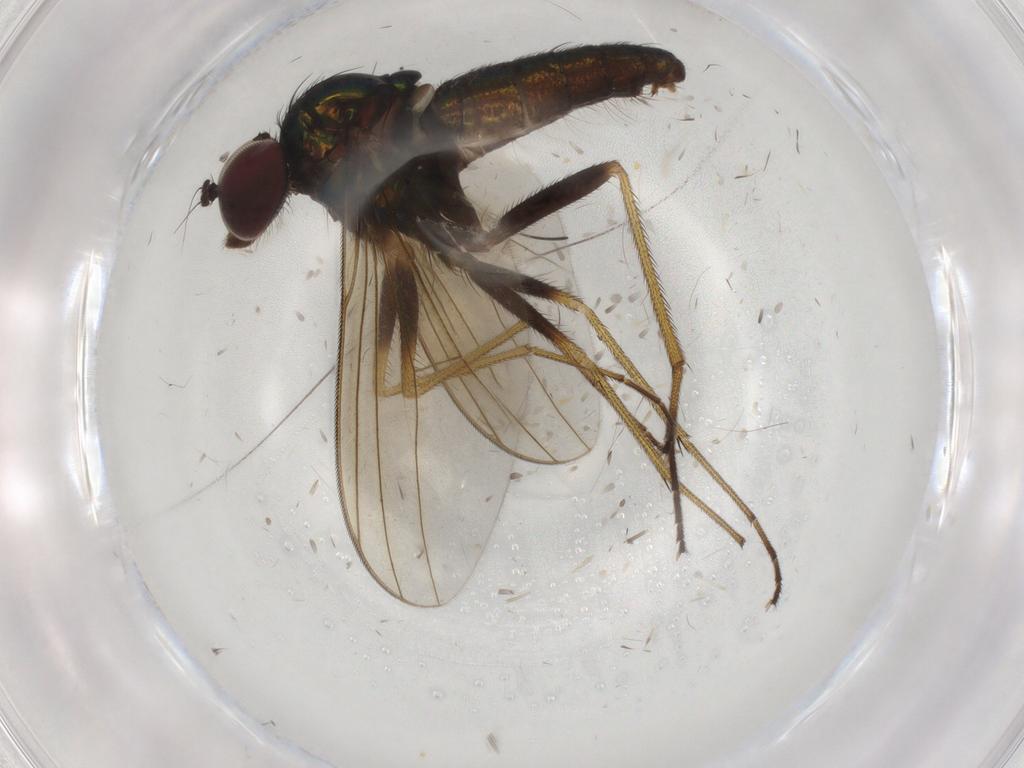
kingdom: Animalia
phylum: Arthropoda
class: Insecta
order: Diptera
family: Dolichopodidae
